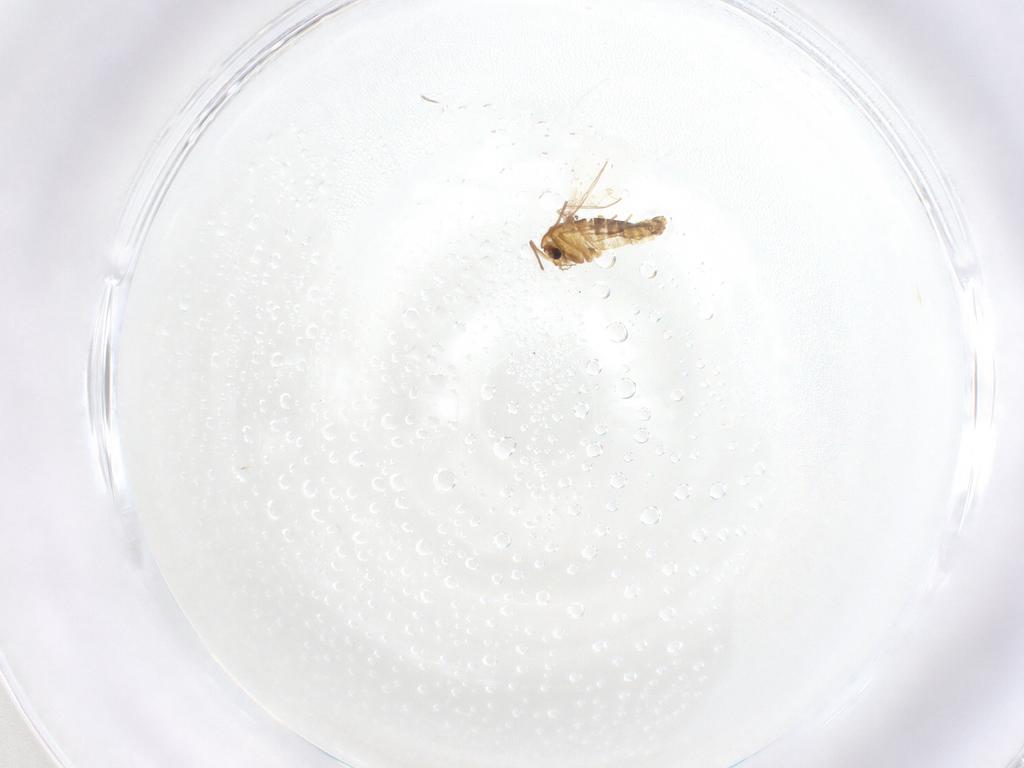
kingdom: Animalia
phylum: Arthropoda
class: Insecta
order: Diptera
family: Chironomidae
